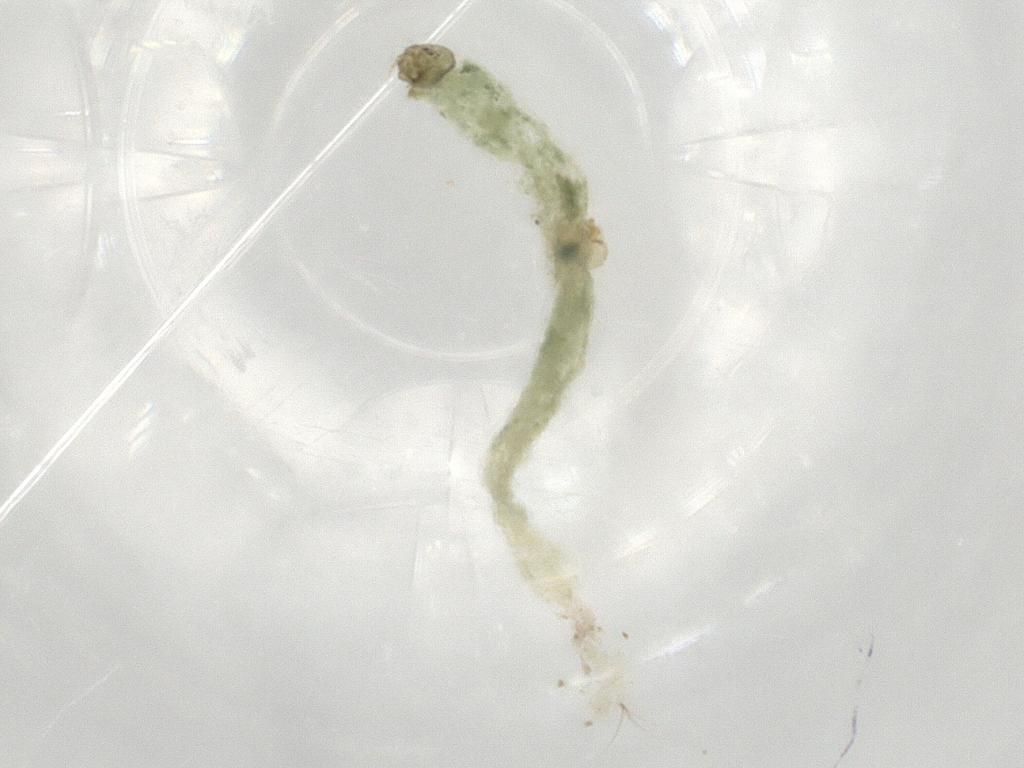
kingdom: Animalia
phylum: Arthropoda
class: Insecta
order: Diptera
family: Chironomidae
